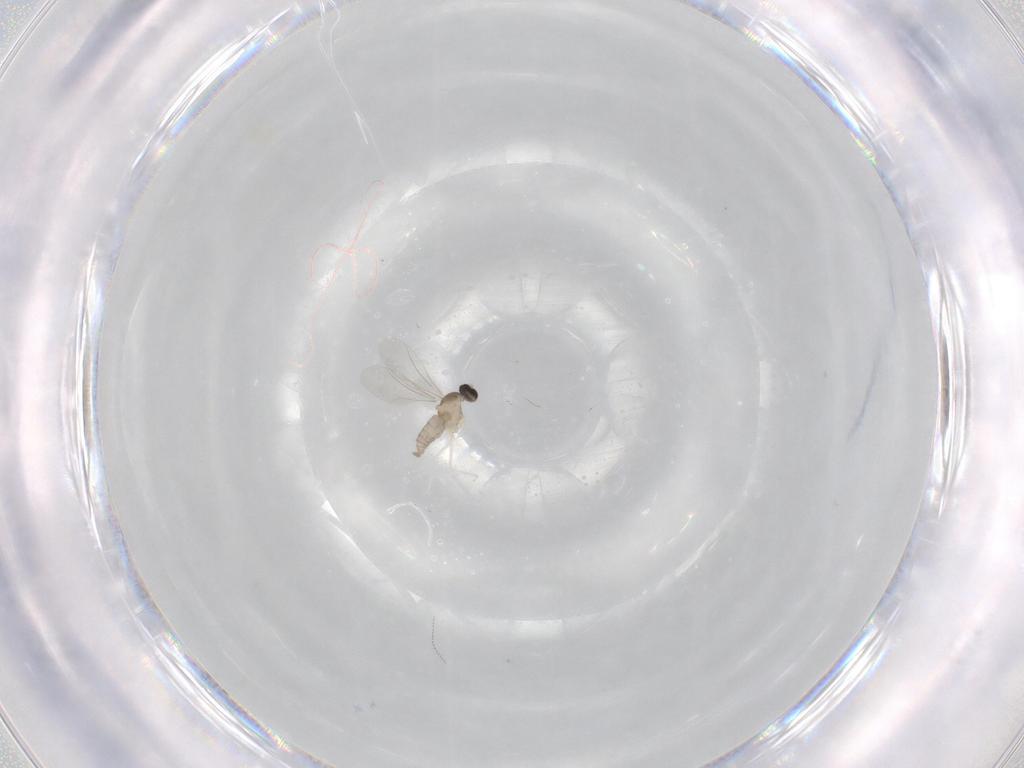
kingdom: Animalia
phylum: Arthropoda
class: Insecta
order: Diptera
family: Cecidomyiidae
